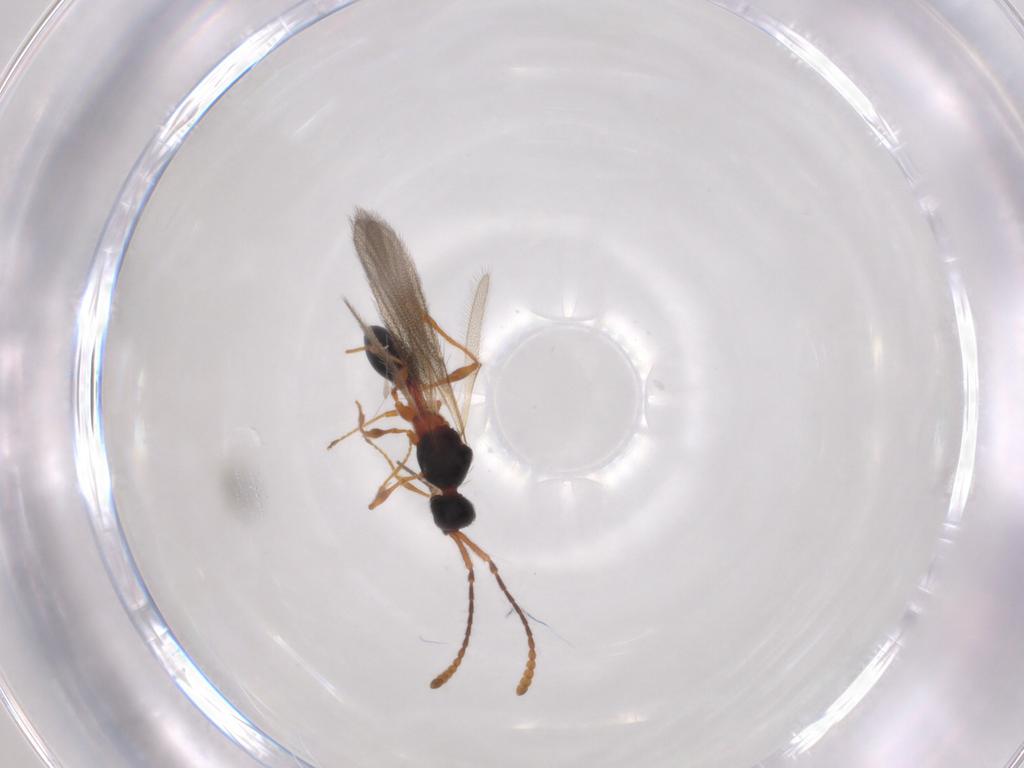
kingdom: Animalia
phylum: Arthropoda
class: Insecta
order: Hymenoptera
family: Diapriidae
